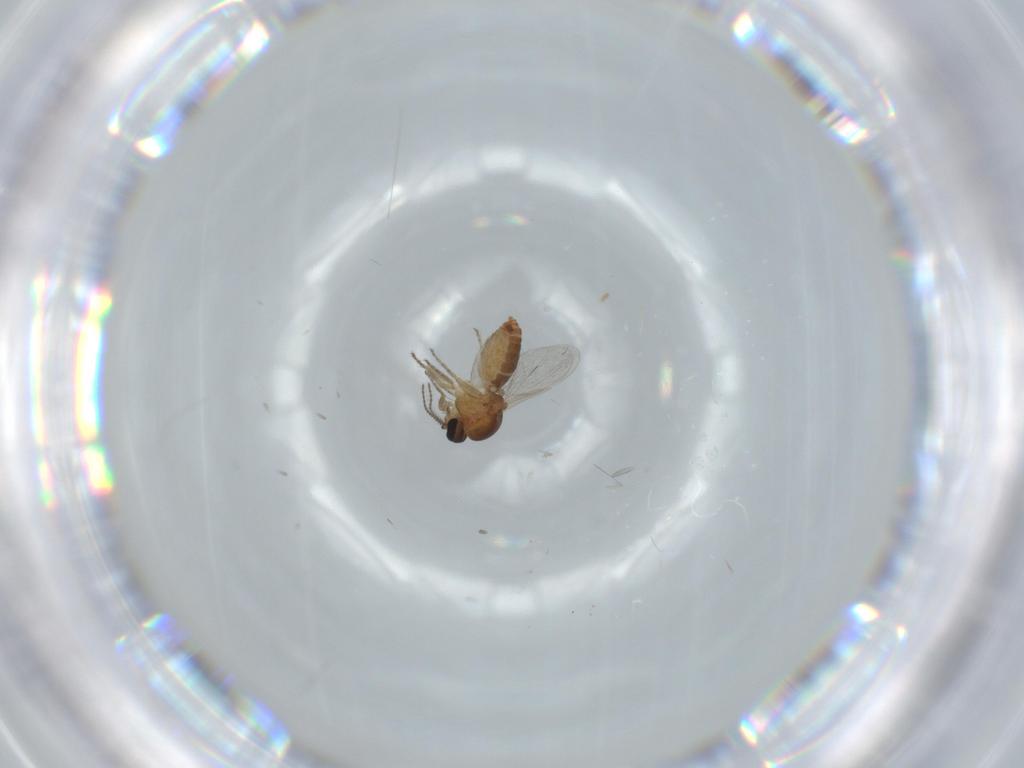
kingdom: Animalia
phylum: Arthropoda
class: Insecta
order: Diptera
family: Ceratopogonidae
